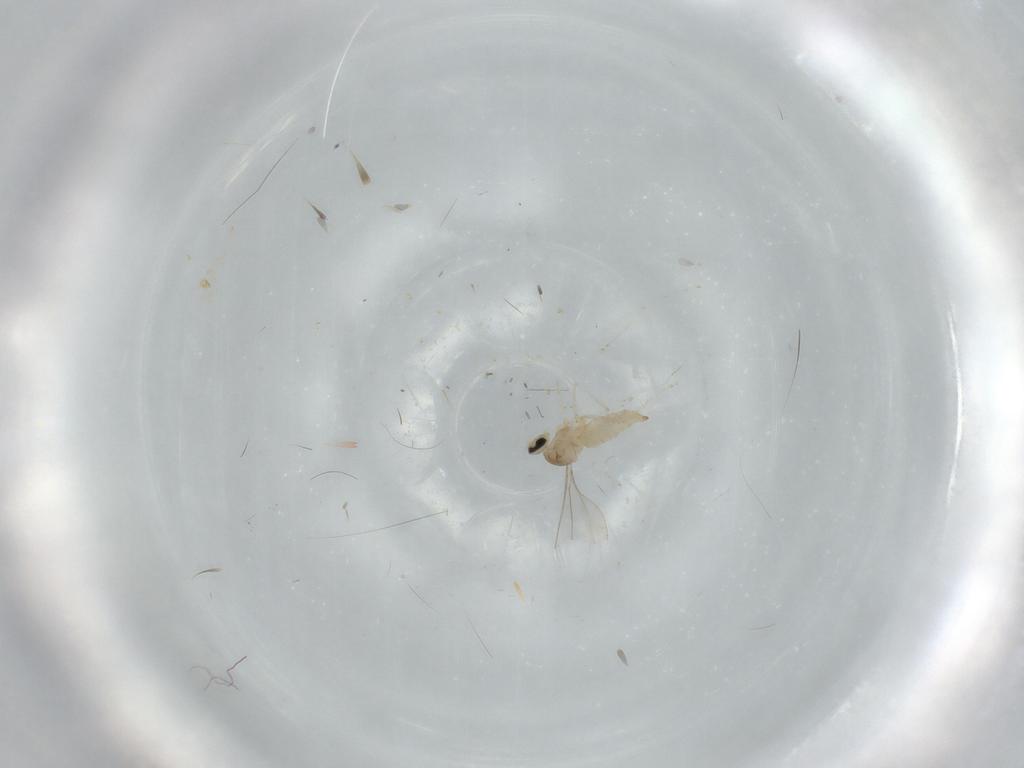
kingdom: Animalia
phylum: Arthropoda
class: Insecta
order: Diptera
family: Cecidomyiidae
